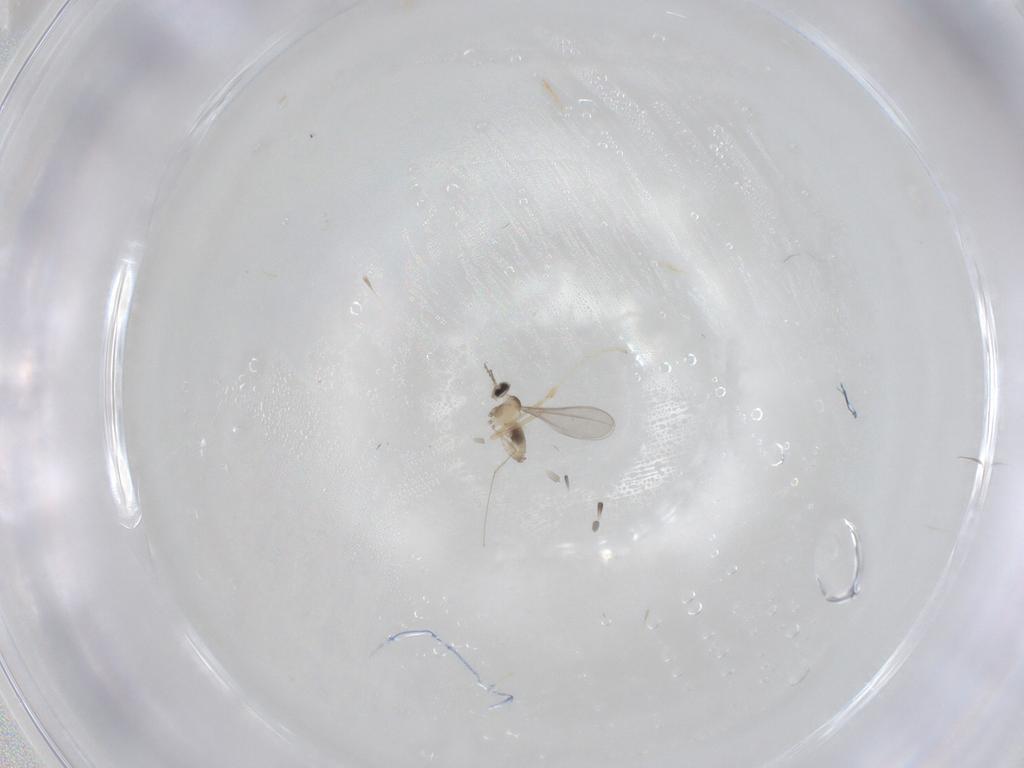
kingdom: Animalia
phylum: Arthropoda
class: Insecta
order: Diptera
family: Cecidomyiidae
